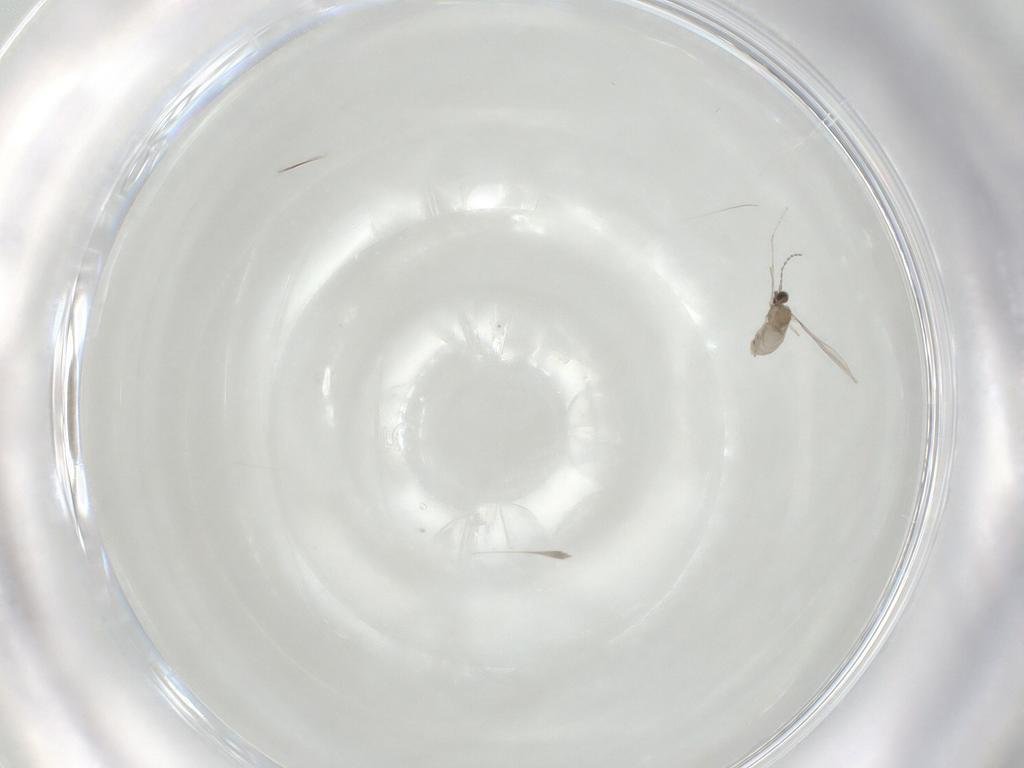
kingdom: Animalia
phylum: Arthropoda
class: Insecta
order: Diptera
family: Cecidomyiidae
